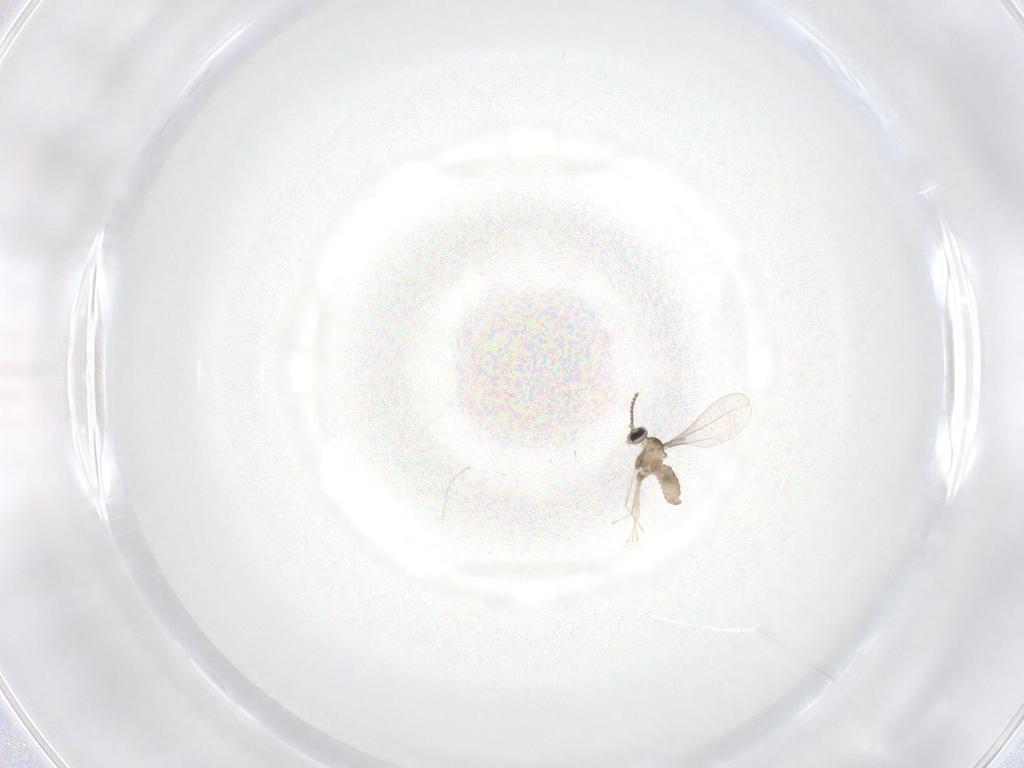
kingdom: Animalia
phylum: Arthropoda
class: Insecta
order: Diptera
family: Cecidomyiidae
